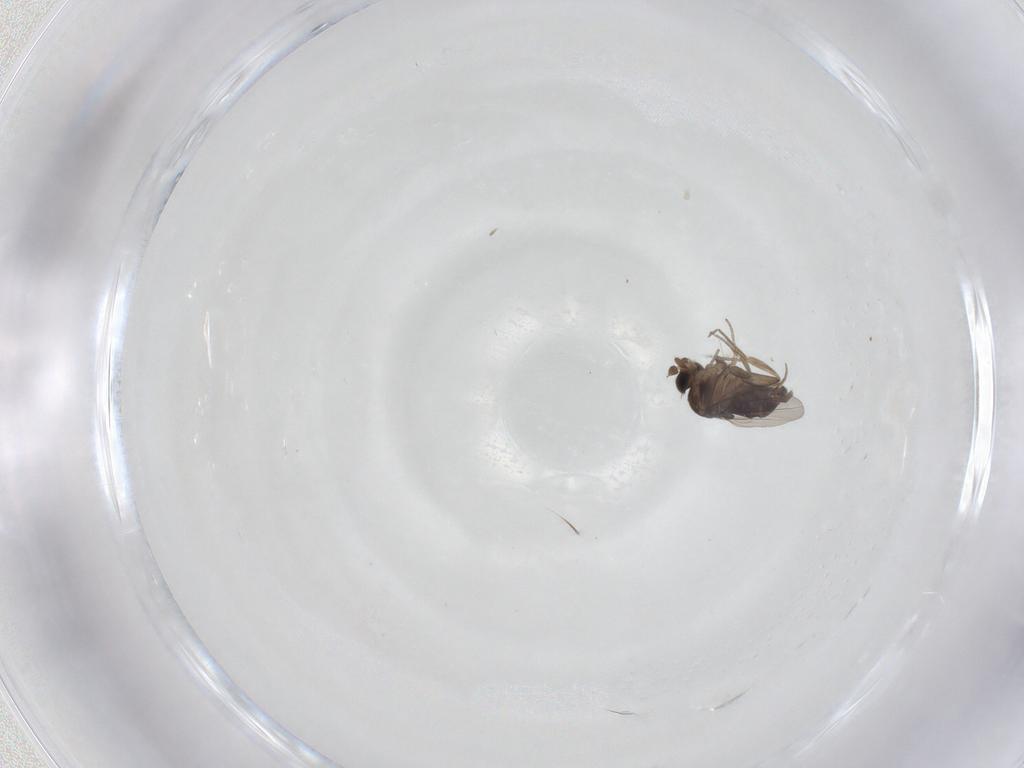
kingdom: Animalia
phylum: Arthropoda
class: Insecta
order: Diptera
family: Phoridae
